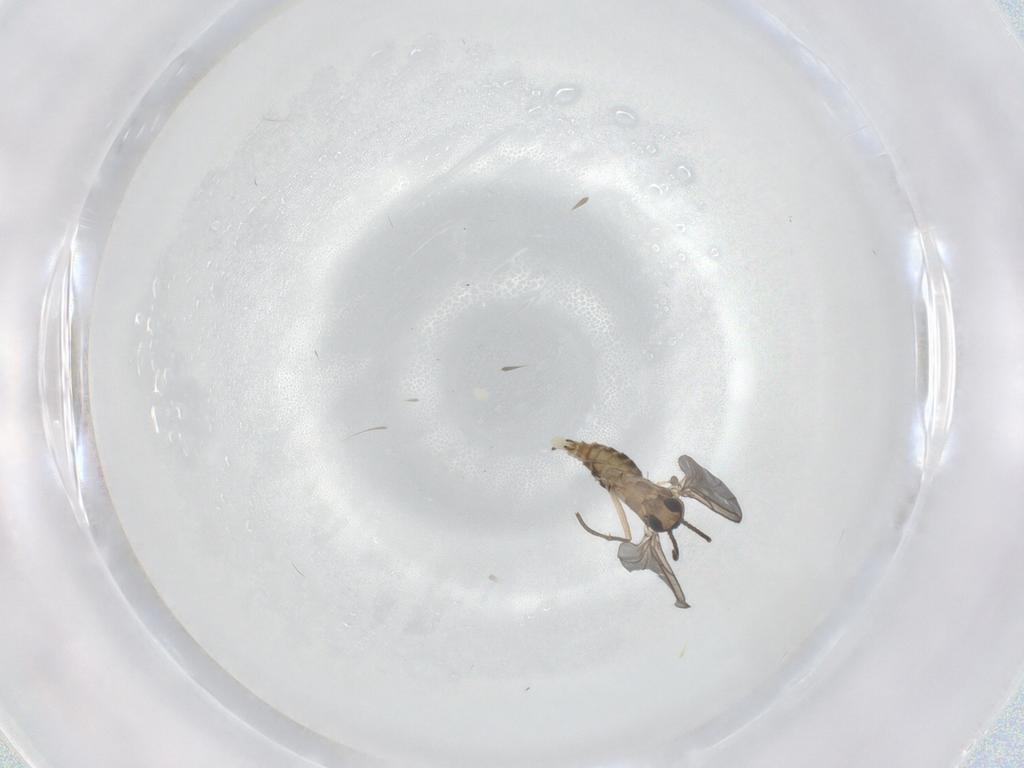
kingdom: Animalia
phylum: Arthropoda
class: Insecta
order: Diptera
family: Sciaridae
